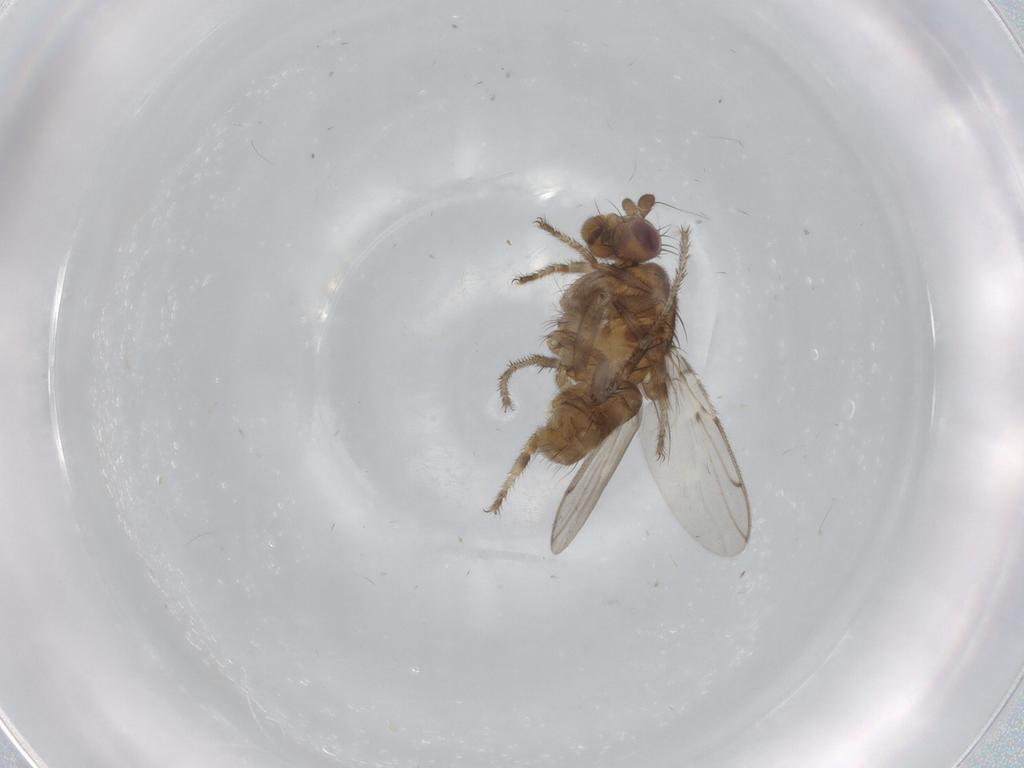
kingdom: Animalia
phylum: Arthropoda
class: Insecta
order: Diptera
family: Sphaeroceridae
